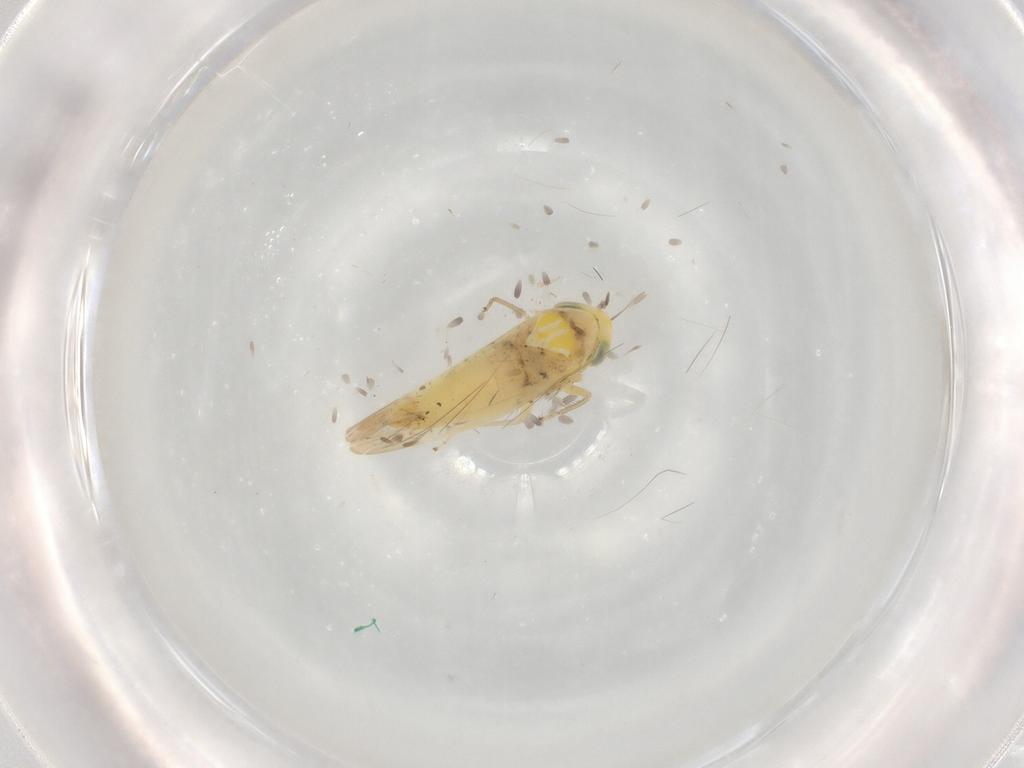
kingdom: Animalia
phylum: Arthropoda
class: Insecta
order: Hemiptera
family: Cicadellidae
